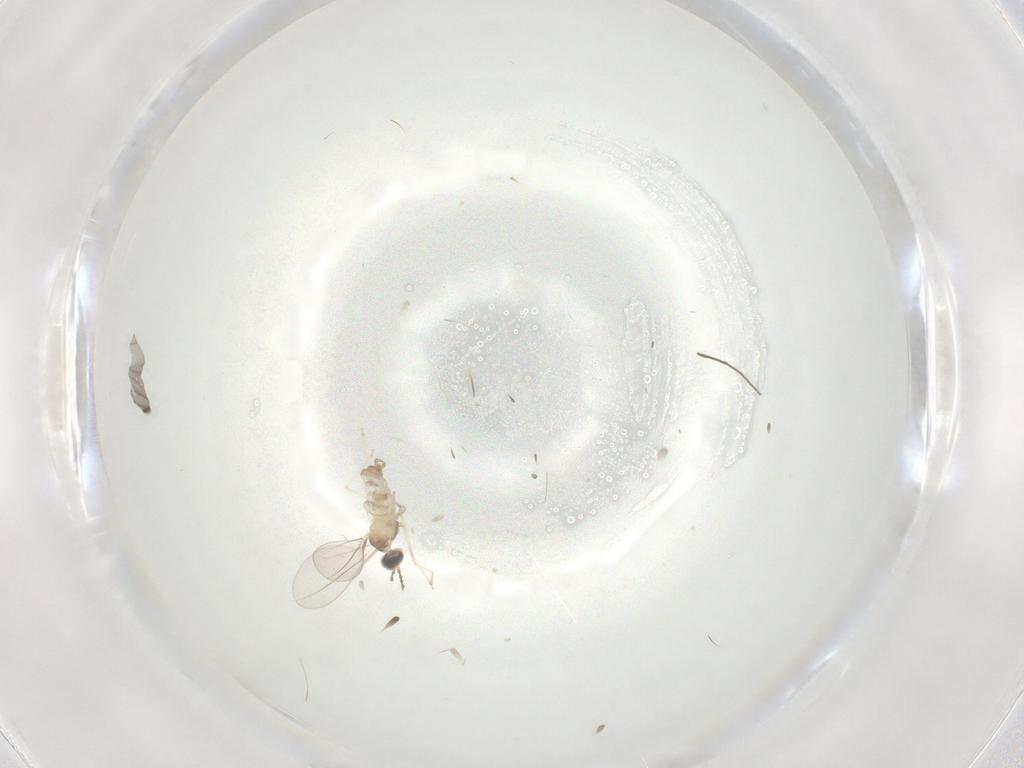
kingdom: Animalia
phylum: Arthropoda
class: Insecta
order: Diptera
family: Cecidomyiidae
